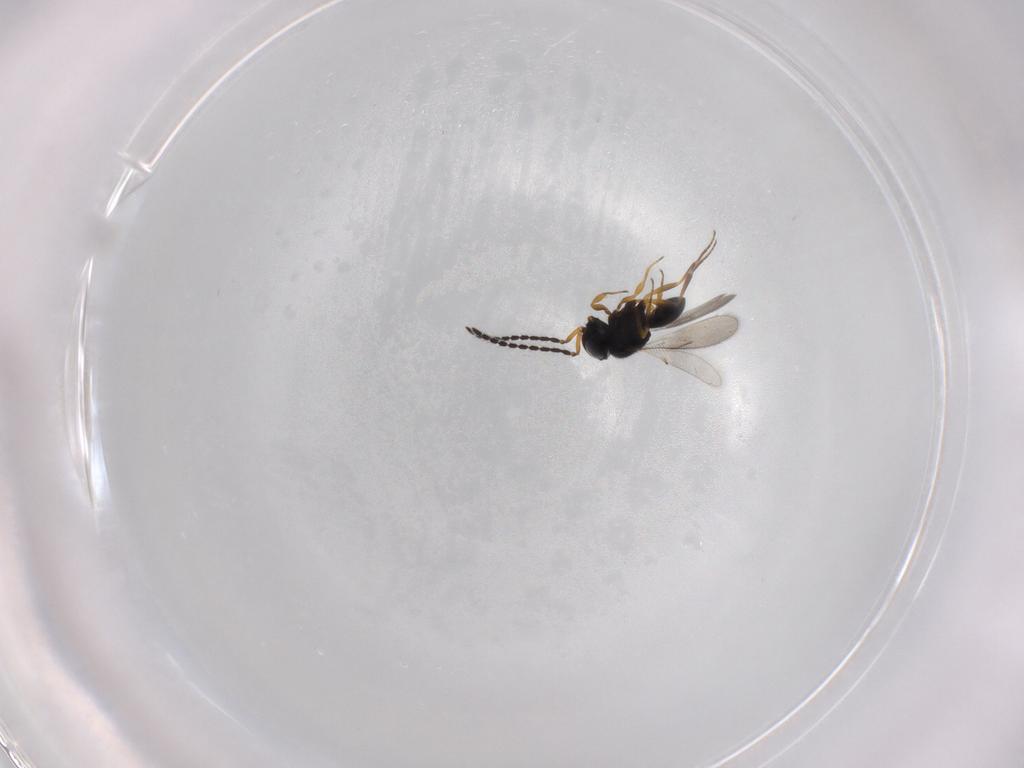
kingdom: Animalia
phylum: Arthropoda
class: Insecta
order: Hymenoptera
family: Scelionidae
